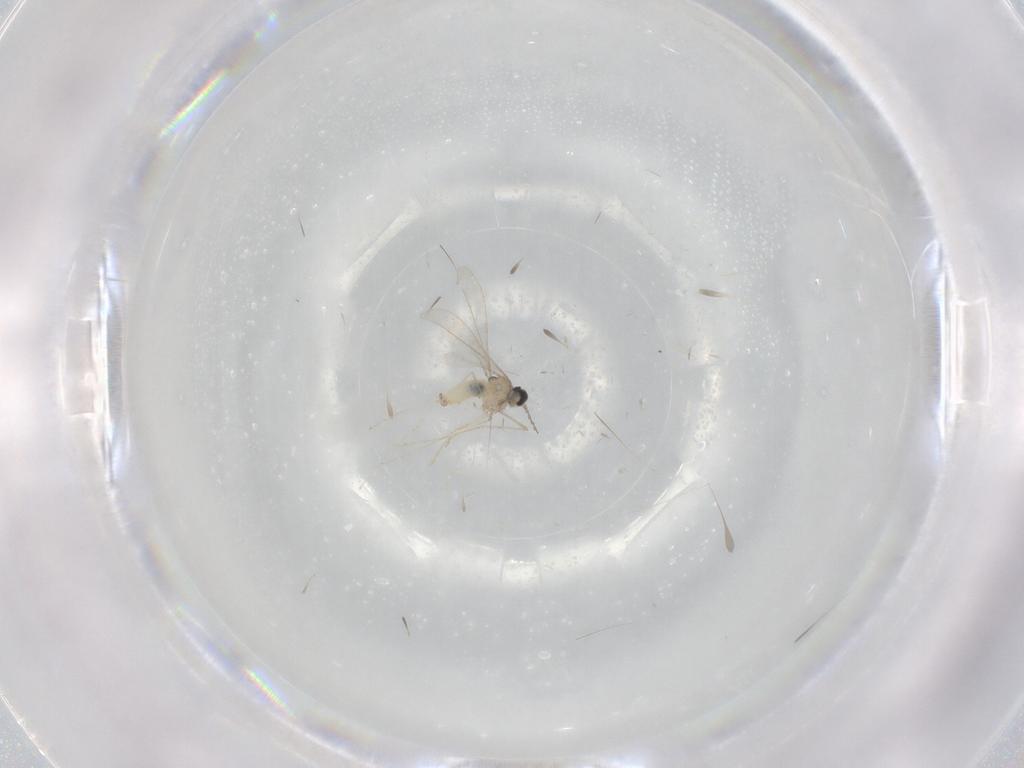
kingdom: Animalia
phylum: Arthropoda
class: Insecta
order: Diptera
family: Cecidomyiidae
